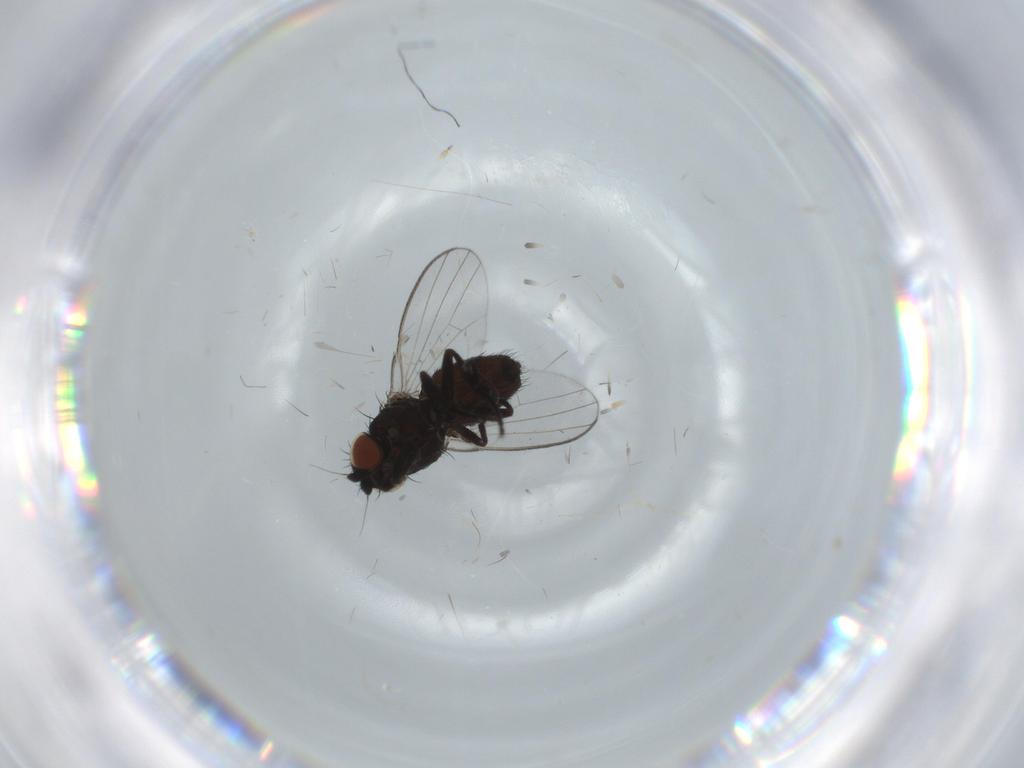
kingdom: Animalia
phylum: Arthropoda
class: Insecta
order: Diptera
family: Milichiidae
